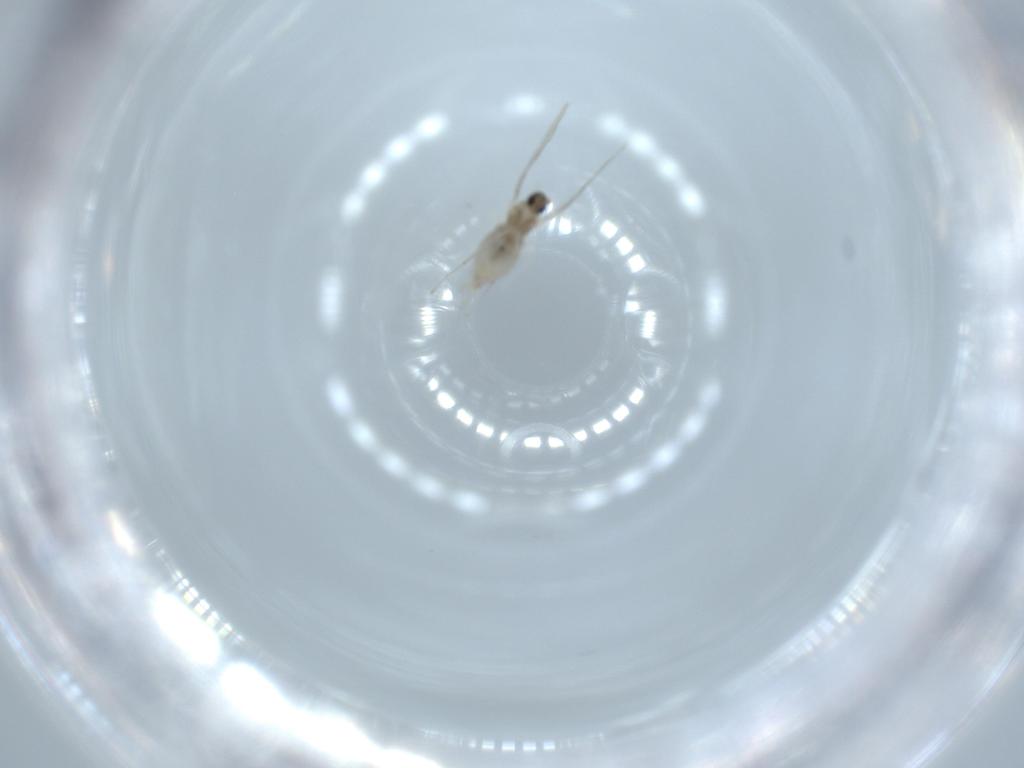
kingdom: Animalia
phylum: Arthropoda
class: Insecta
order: Diptera
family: Cecidomyiidae
